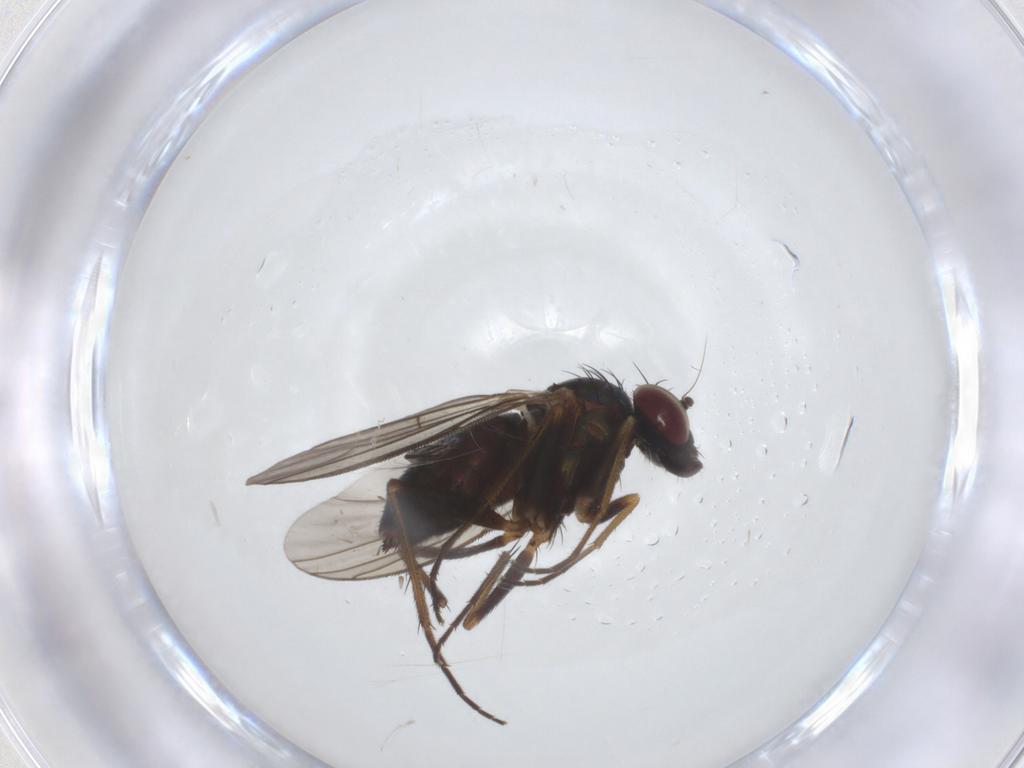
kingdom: Animalia
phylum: Arthropoda
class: Insecta
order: Diptera
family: Dolichopodidae
